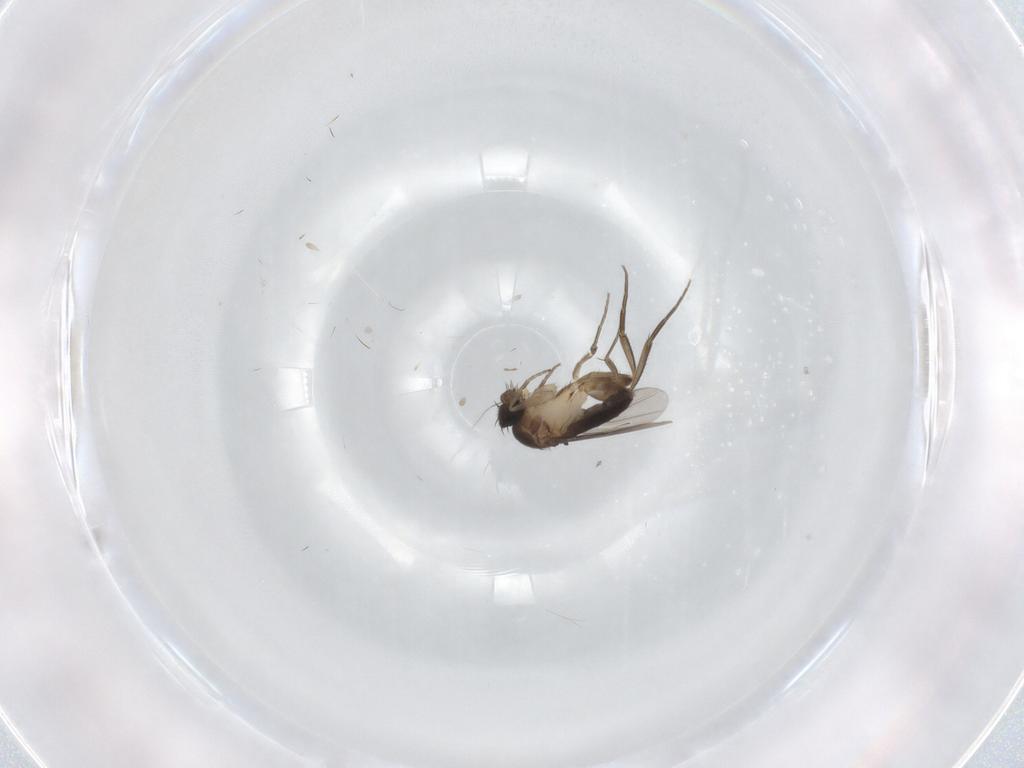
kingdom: Animalia
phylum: Arthropoda
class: Insecta
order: Diptera
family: Phoridae
